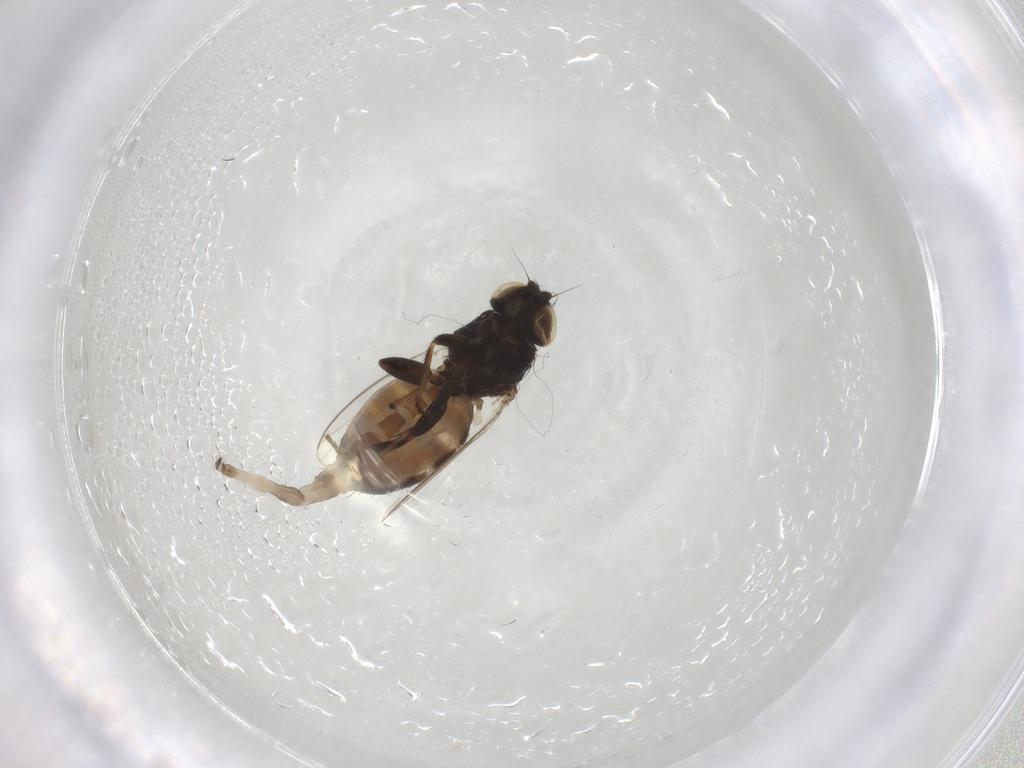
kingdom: Animalia
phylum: Arthropoda
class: Insecta
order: Diptera
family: Milichiidae
